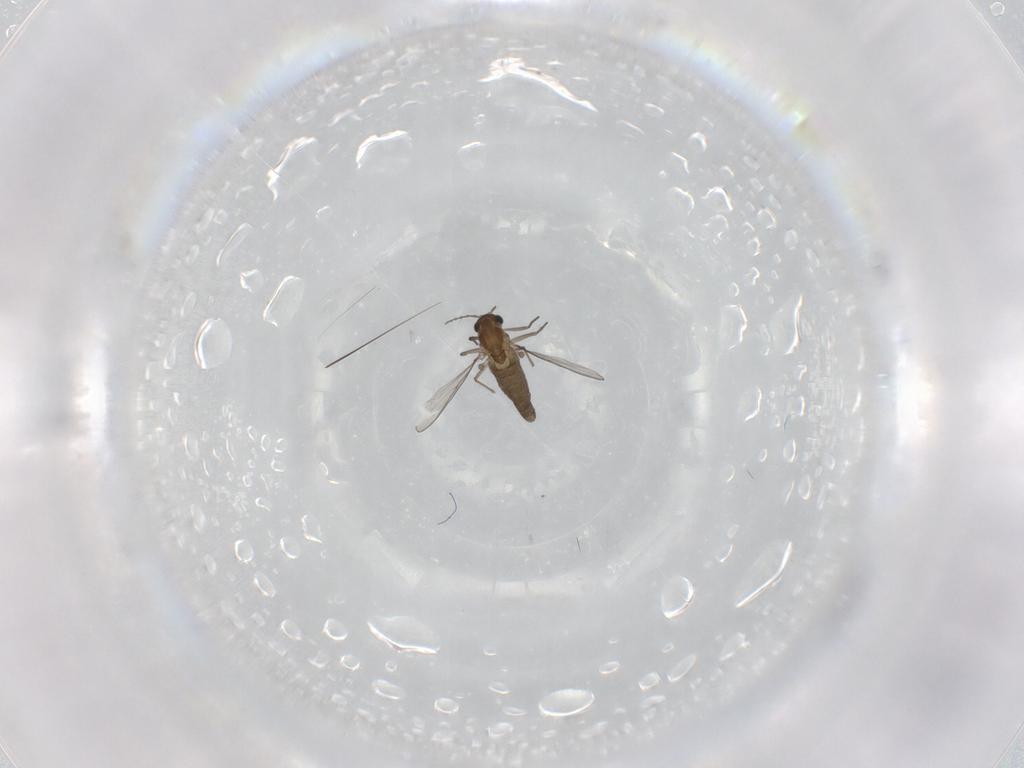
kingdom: Animalia
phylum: Arthropoda
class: Insecta
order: Diptera
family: Chironomidae
